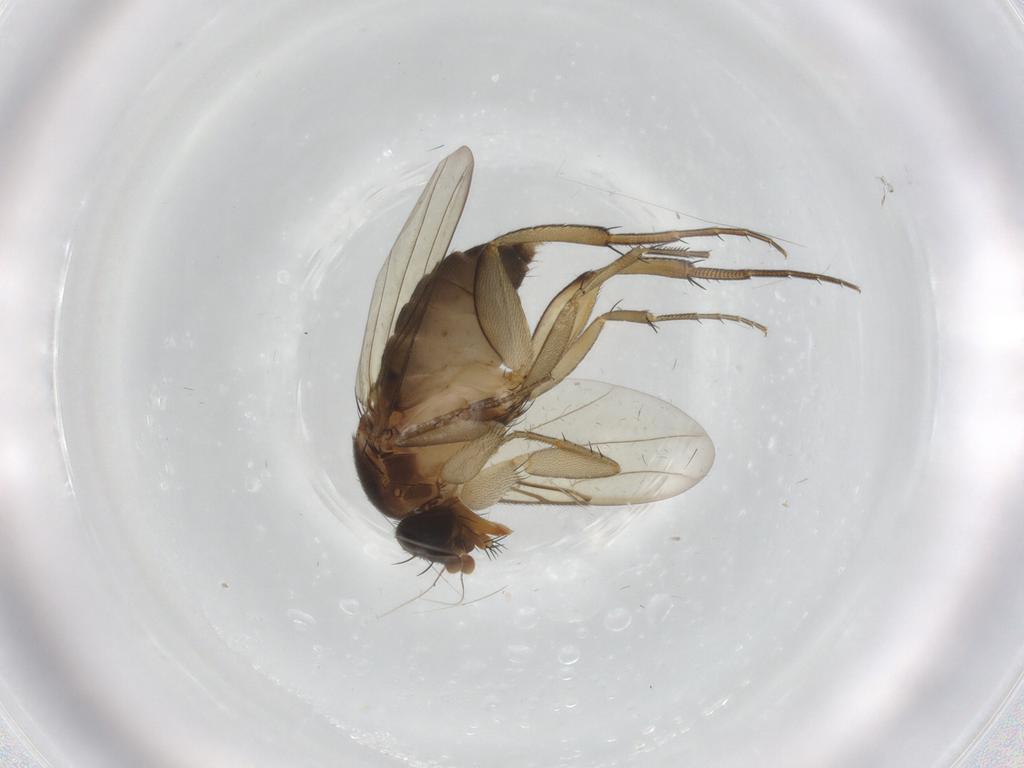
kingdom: Animalia
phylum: Arthropoda
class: Insecta
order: Diptera
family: Phoridae
